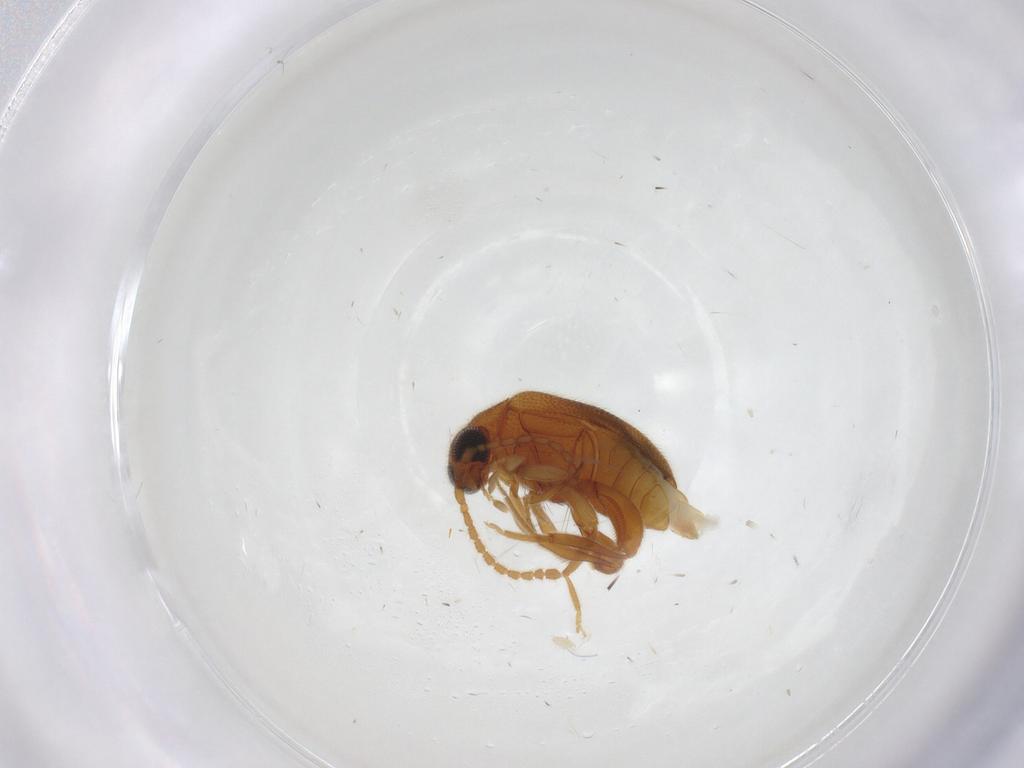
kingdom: Animalia
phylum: Arthropoda
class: Insecta
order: Coleoptera
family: Aderidae
